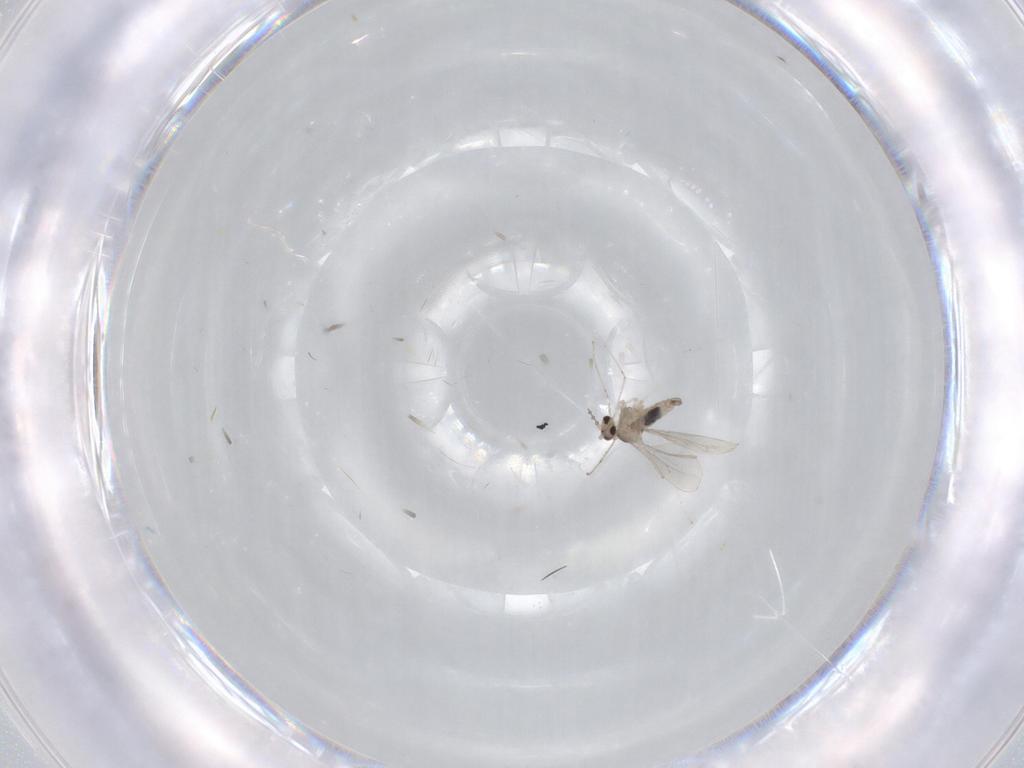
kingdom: Animalia
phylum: Arthropoda
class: Insecta
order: Diptera
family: Cecidomyiidae
